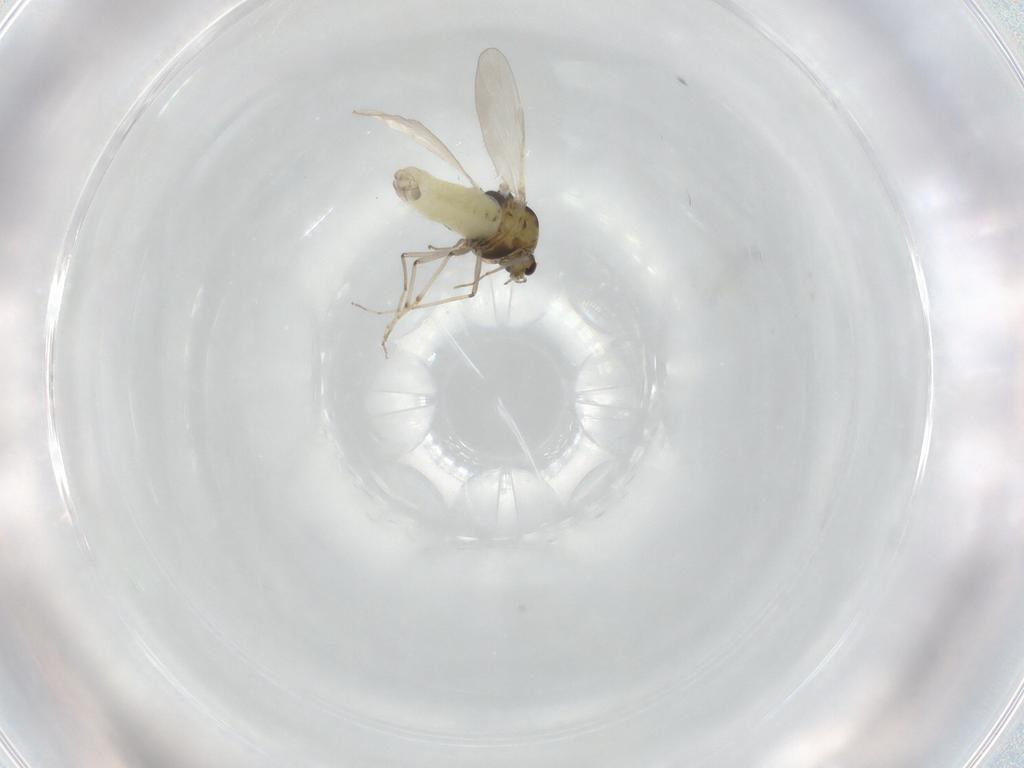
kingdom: Animalia
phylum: Arthropoda
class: Insecta
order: Diptera
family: Chironomidae
